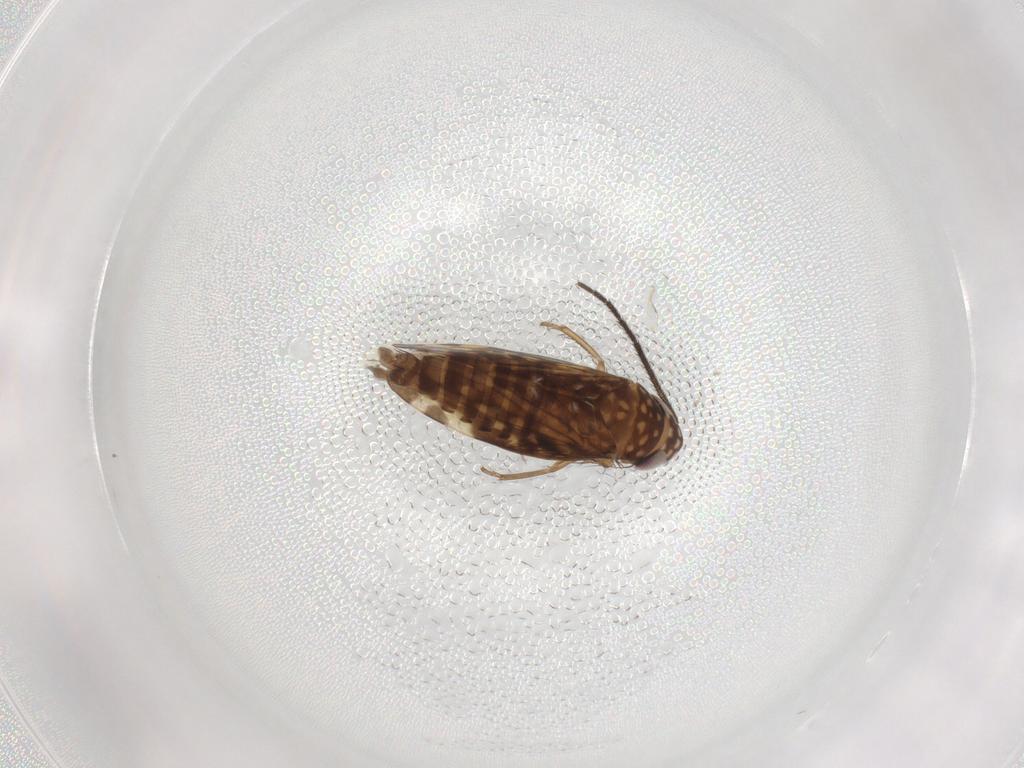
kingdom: Animalia
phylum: Arthropoda
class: Insecta
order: Hemiptera
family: Cicadellidae
